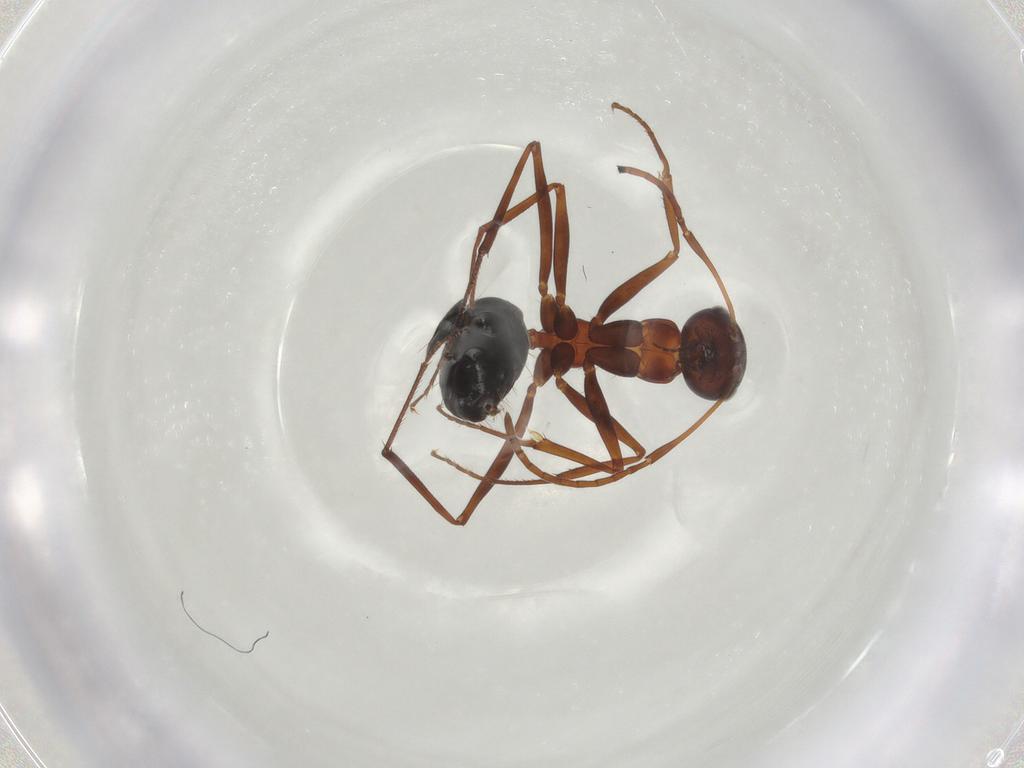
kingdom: Animalia
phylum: Arthropoda
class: Insecta
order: Hymenoptera
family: Formicidae
